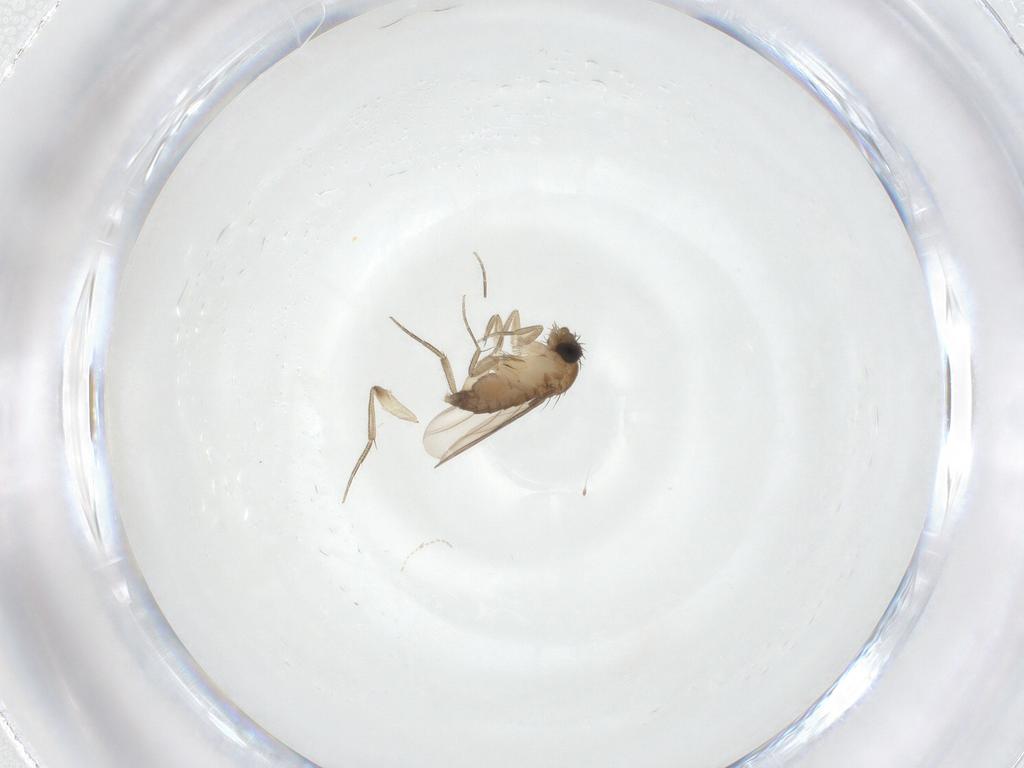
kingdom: Animalia
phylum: Arthropoda
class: Insecta
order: Diptera
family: Phoridae
